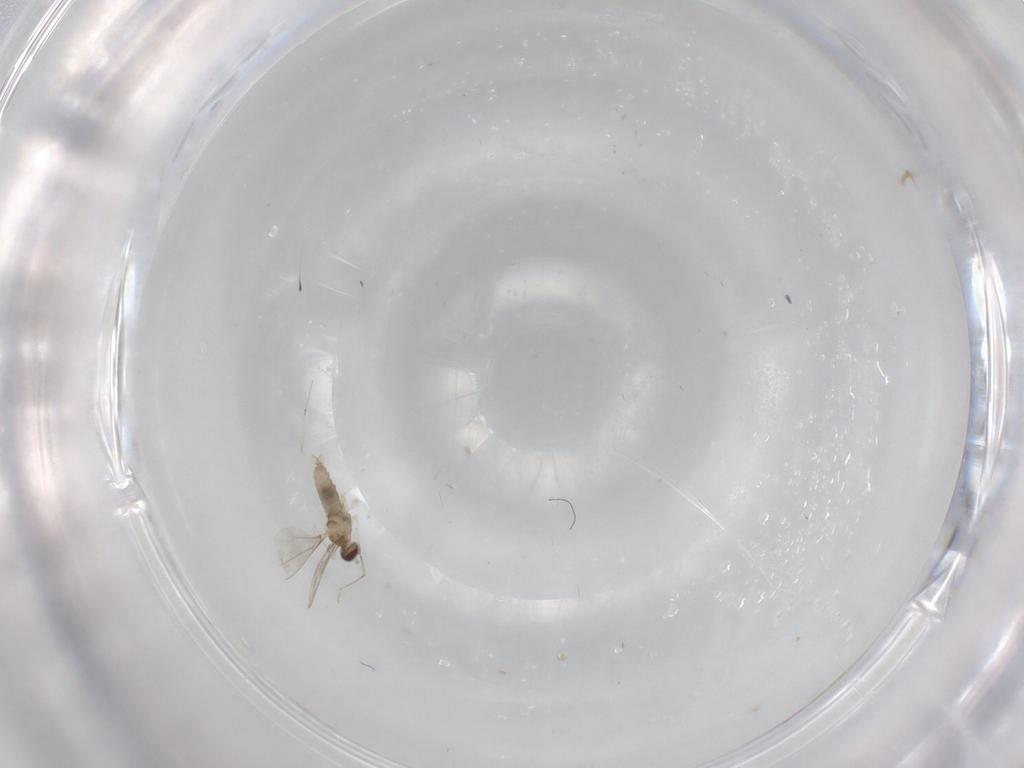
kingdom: Animalia
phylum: Arthropoda
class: Insecta
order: Diptera
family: Cecidomyiidae
